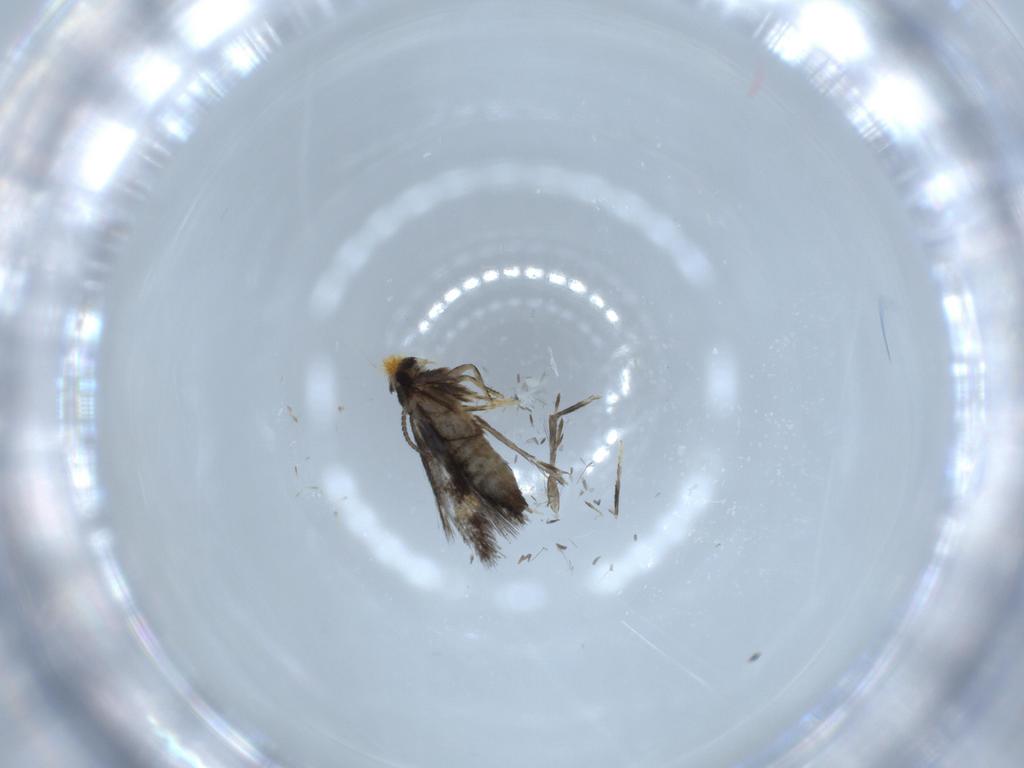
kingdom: Animalia
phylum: Arthropoda
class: Insecta
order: Lepidoptera
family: Nepticulidae
